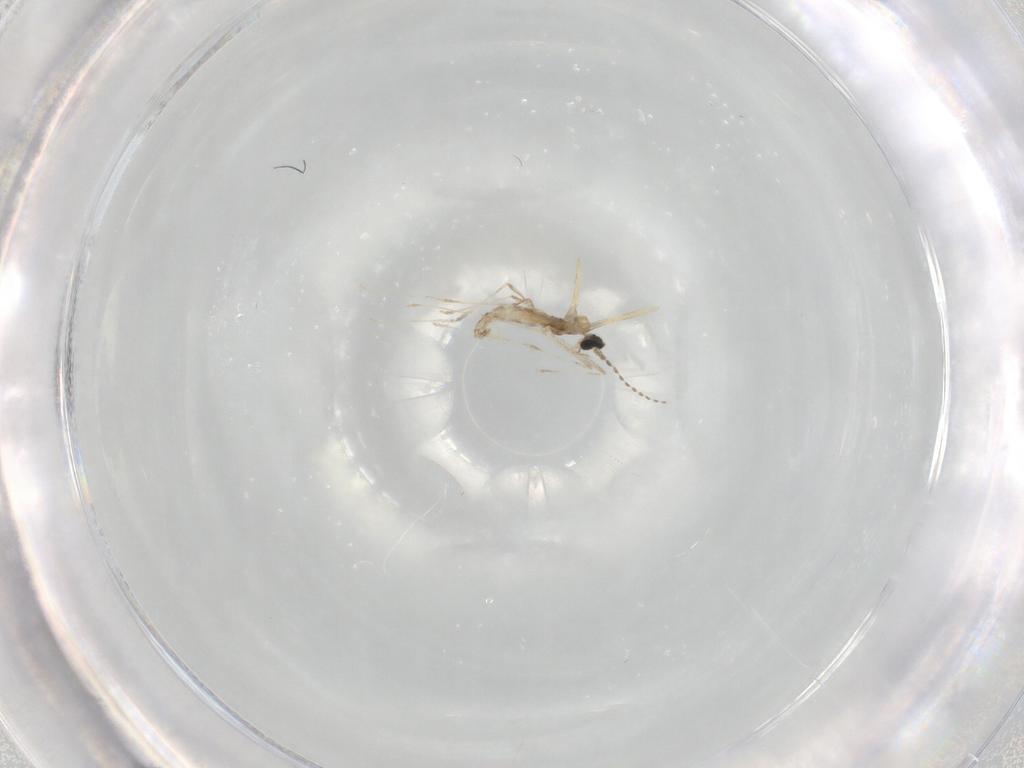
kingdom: Animalia
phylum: Arthropoda
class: Insecta
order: Diptera
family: Cecidomyiidae
